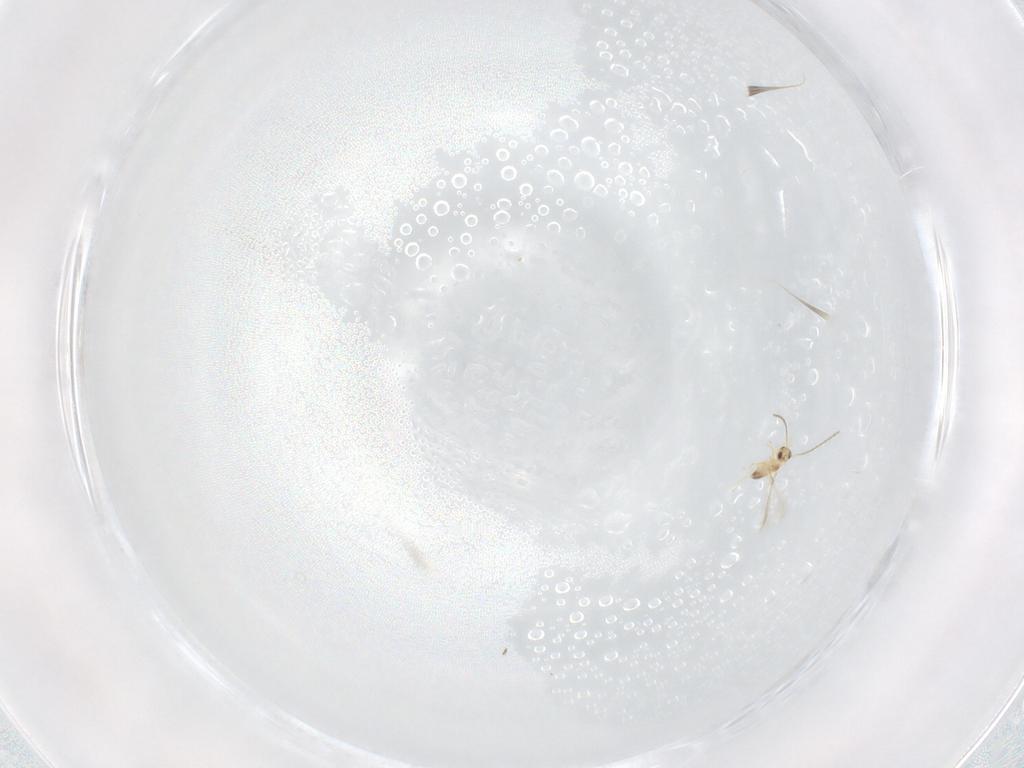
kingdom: Animalia
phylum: Arthropoda
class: Insecta
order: Hymenoptera
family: Mymaridae
